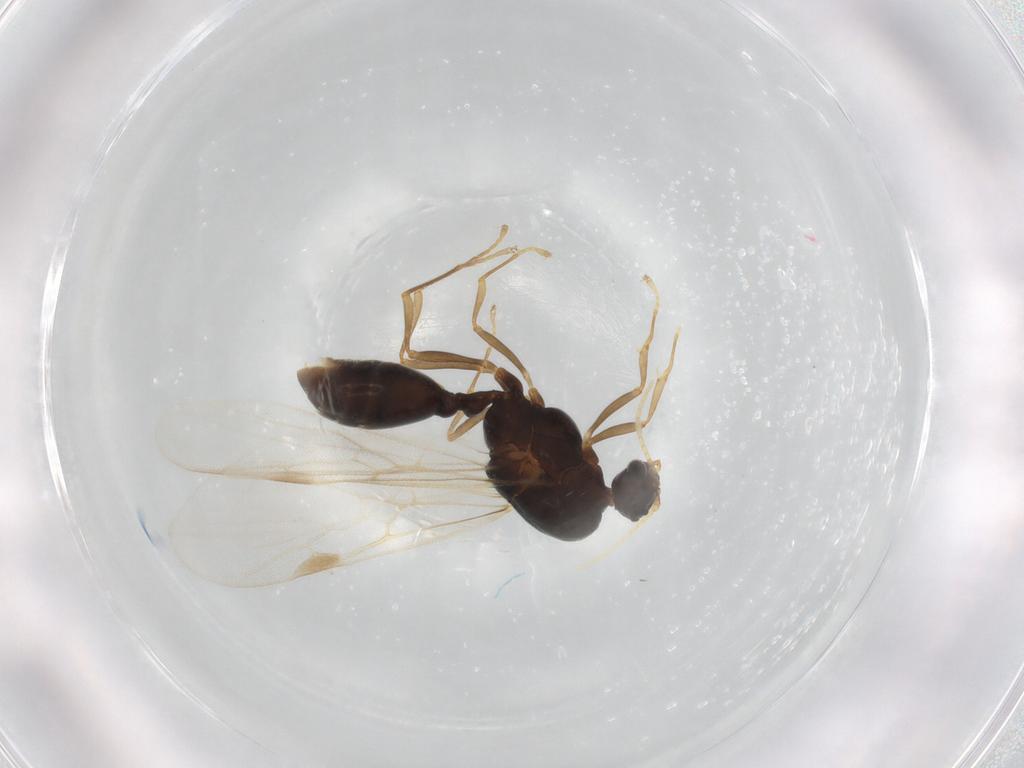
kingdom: Animalia
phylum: Arthropoda
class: Insecta
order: Hymenoptera
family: Formicidae
